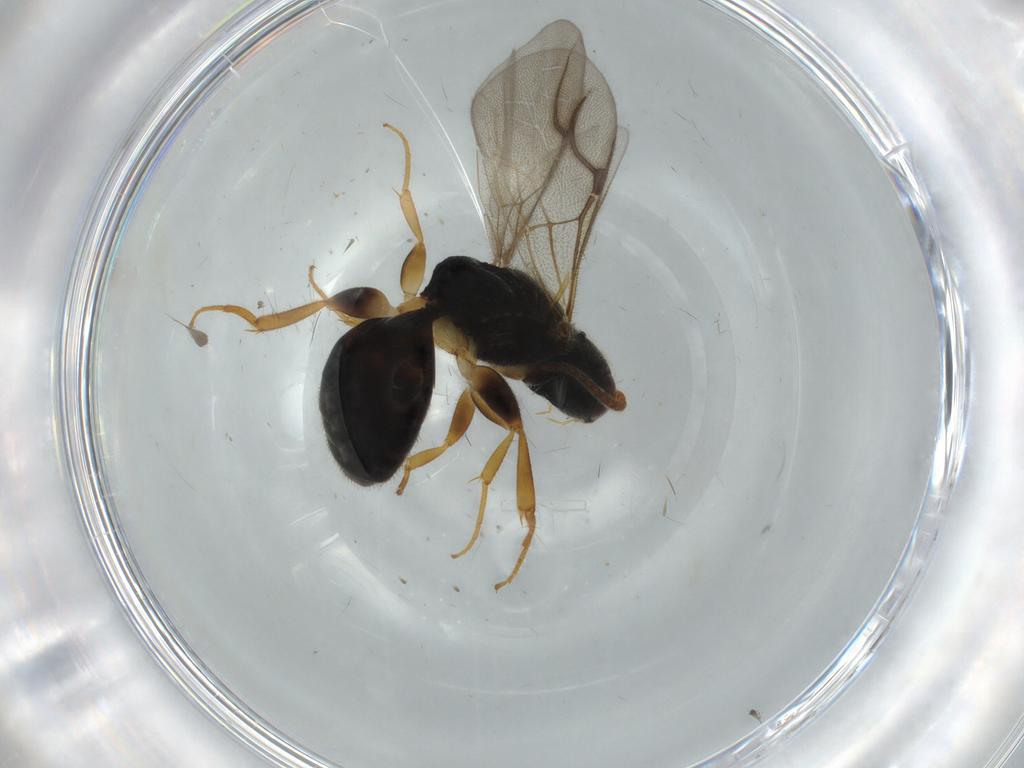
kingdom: Animalia
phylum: Arthropoda
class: Insecta
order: Hymenoptera
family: Bethylidae
